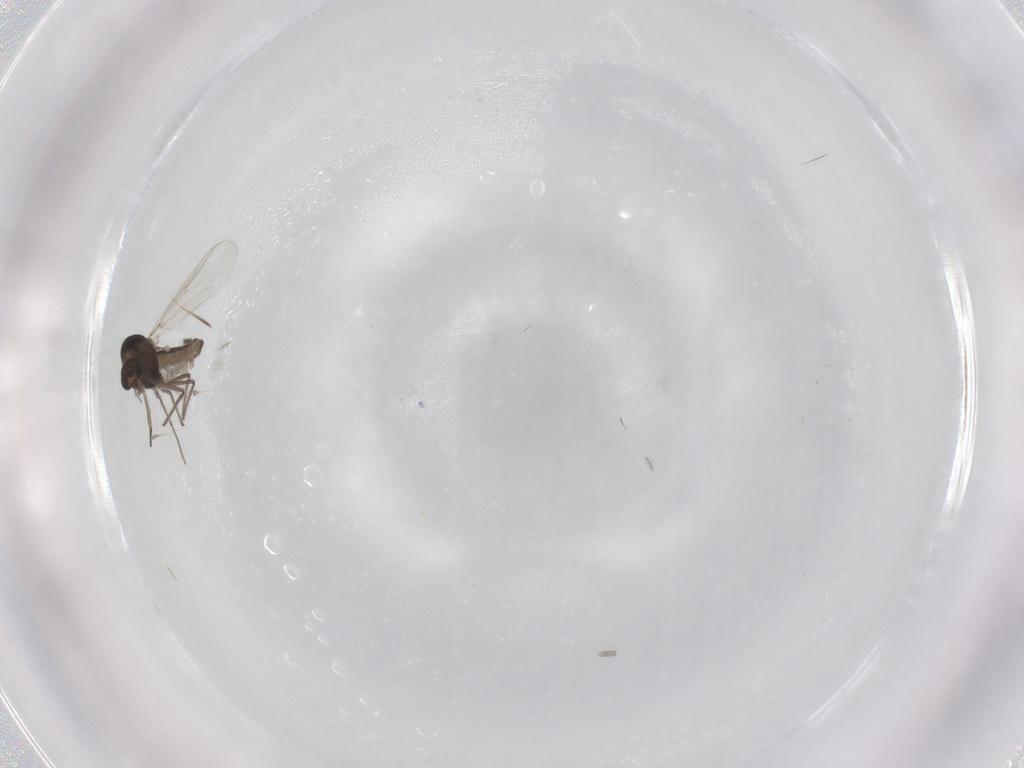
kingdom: Animalia
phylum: Arthropoda
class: Insecta
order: Diptera
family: Chironomidae
